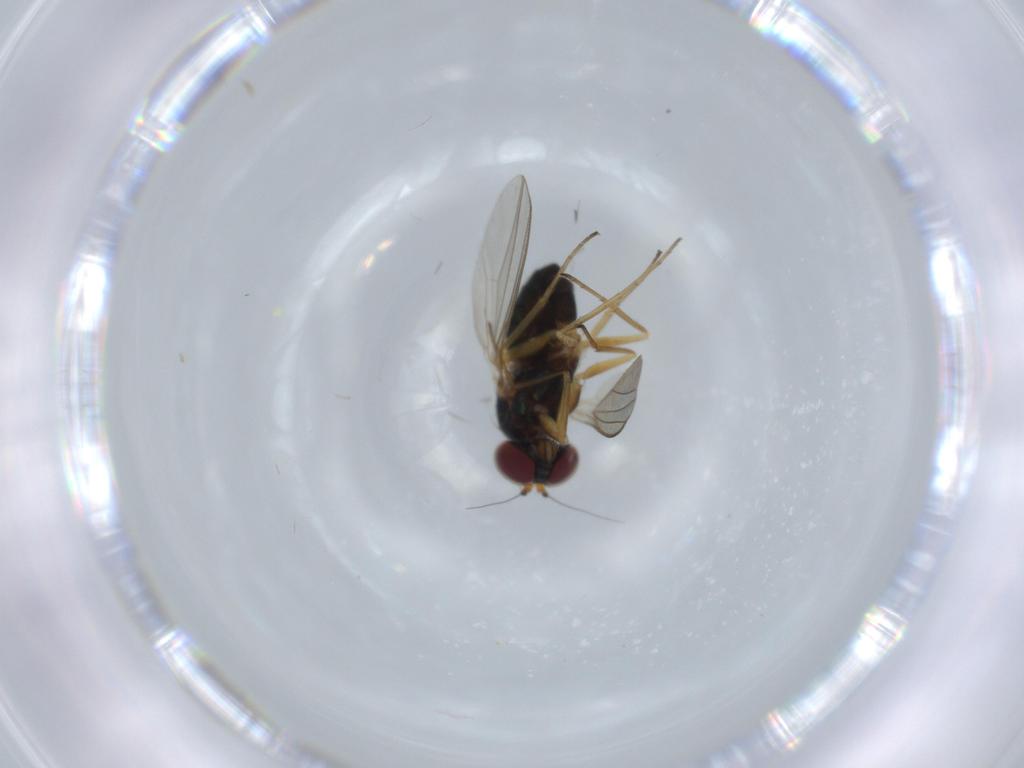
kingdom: Animalia
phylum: Arthropoda
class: Insecta
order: Diptera
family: Dolichopodidae
